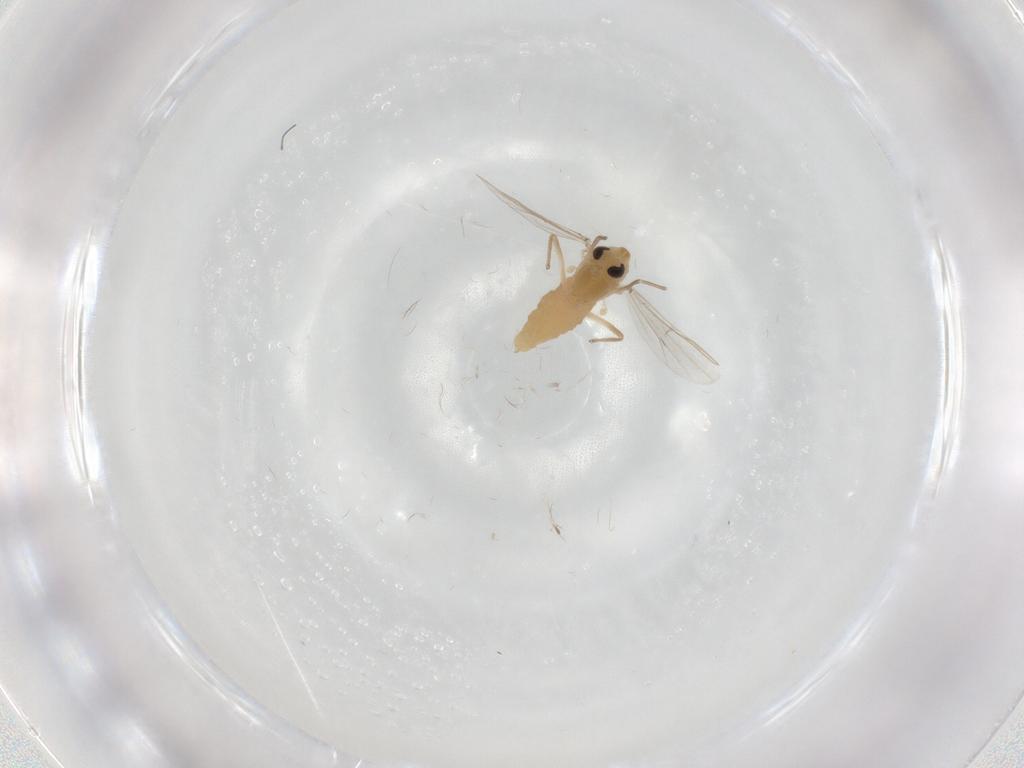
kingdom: Animalia
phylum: Arthropoda
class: Insecta
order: Diptera
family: Chironomidae
